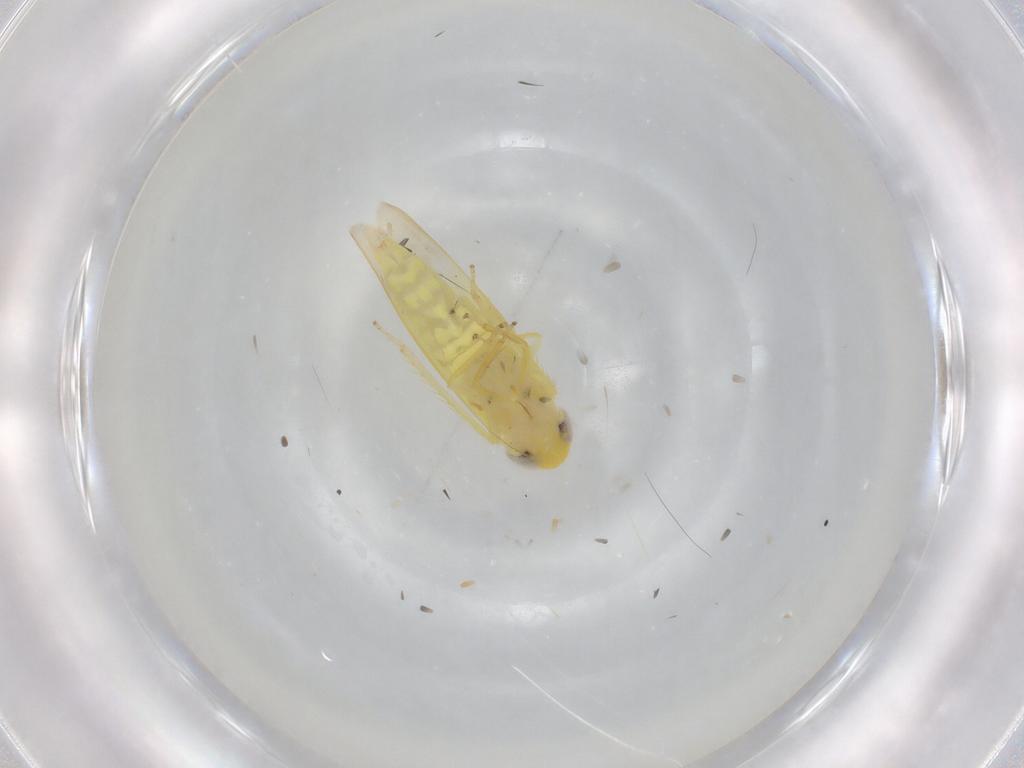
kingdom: Animalia
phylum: Arthropoda
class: Insecta
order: Hemiptera
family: Cicadellidae
